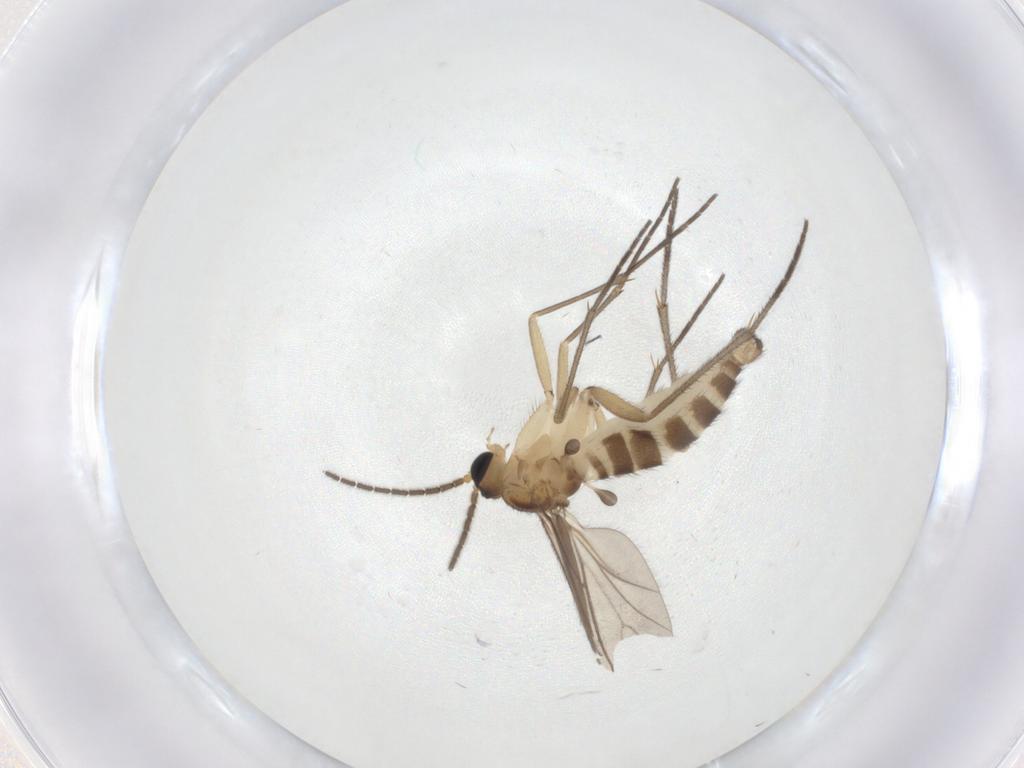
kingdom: Animalia
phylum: Arthropoda
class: Insecta
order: Diptera
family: Sciaridae
